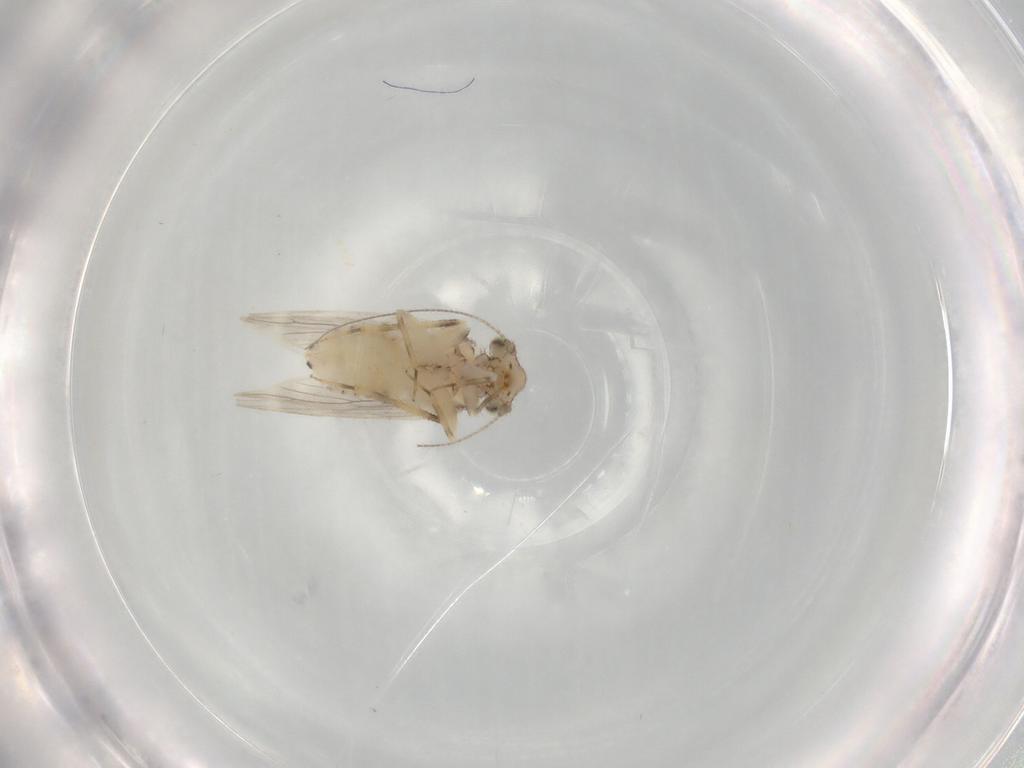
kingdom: Animalia
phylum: Arthropoda
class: Insecta
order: Psocodea
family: Lepidopsocidae
